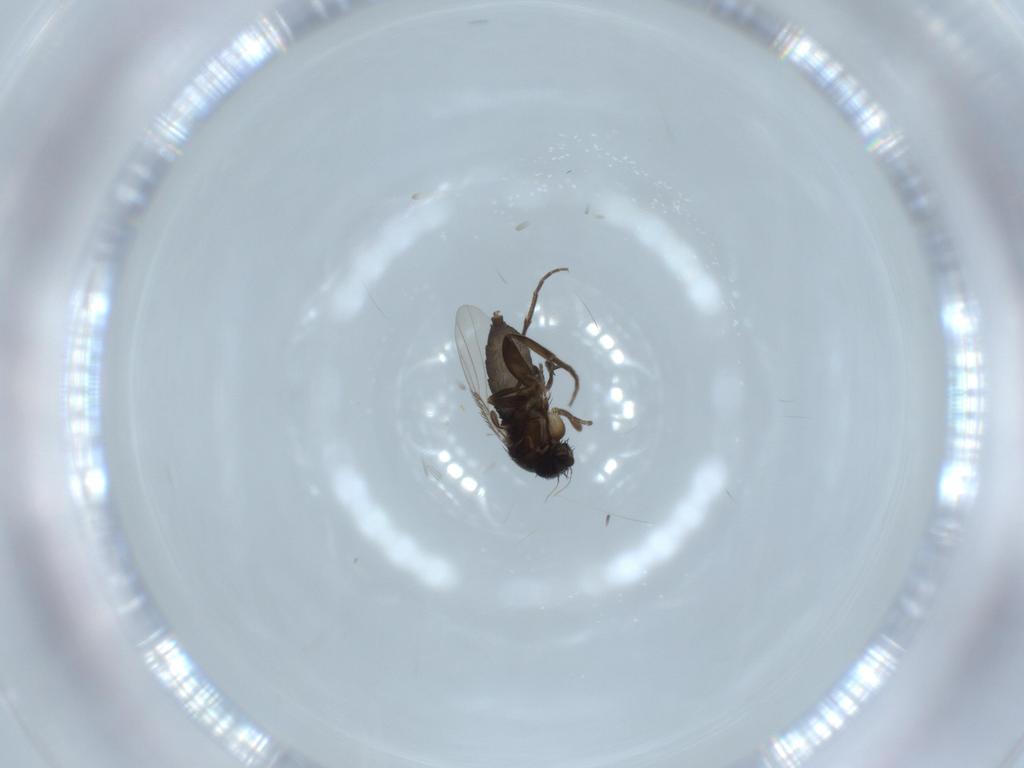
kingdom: Animalia
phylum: Arthropoda
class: Insecta
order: Diptera
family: Phoridae
